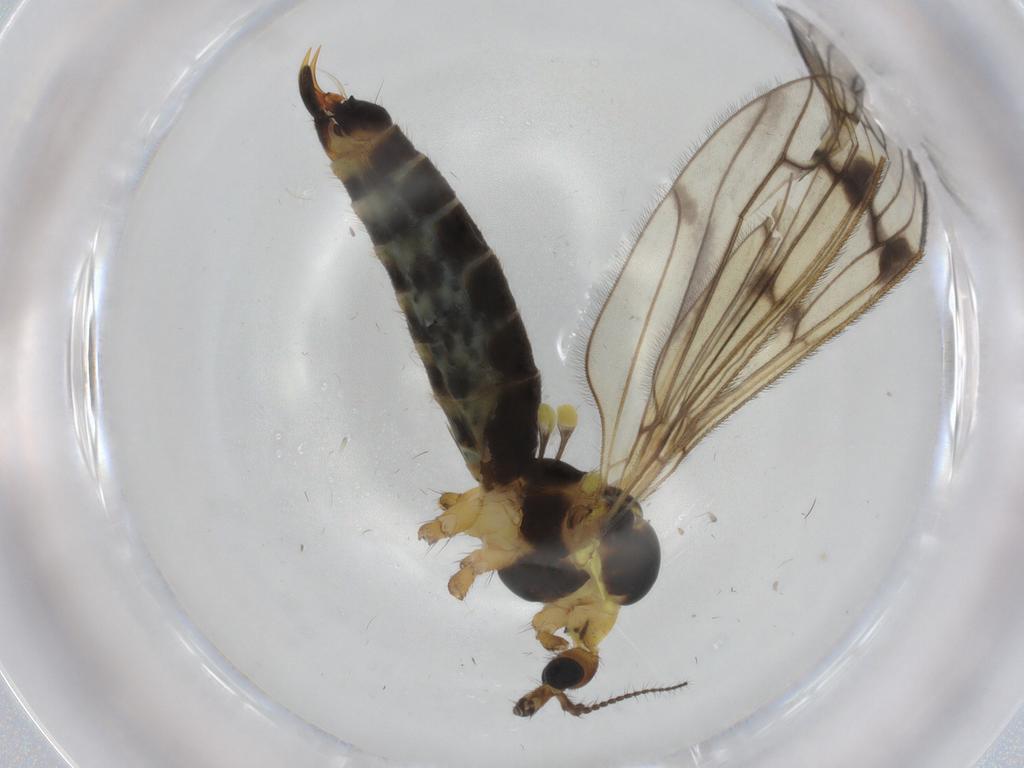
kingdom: Animalia
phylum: Arthropoda
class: Insecta
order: Diptera
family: Limoniidae
